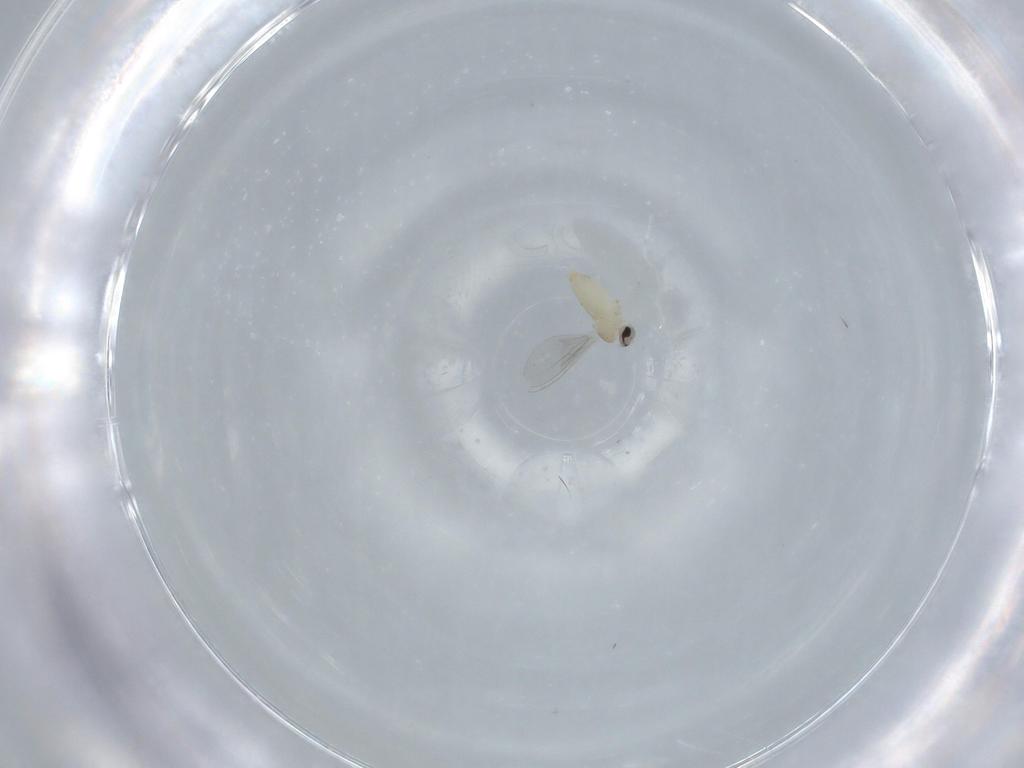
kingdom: Animalia
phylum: Arthropoda
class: Insecta
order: Diptera
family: Cecidomyiidae
